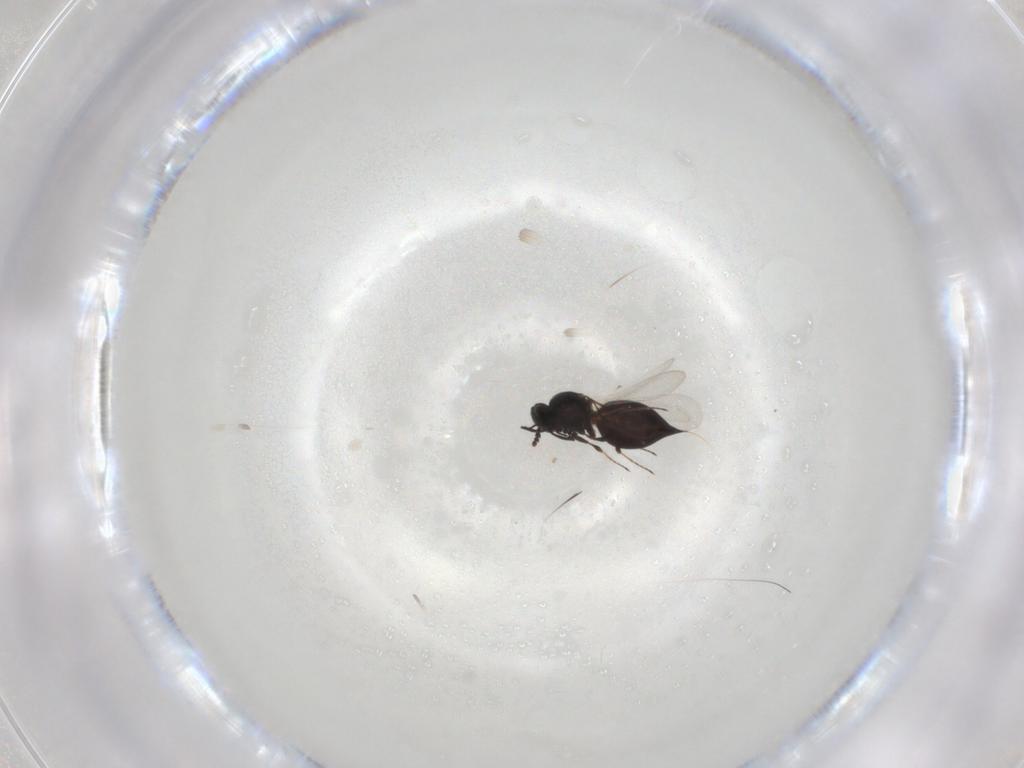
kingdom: Animalia
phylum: Arthropoda
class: Insecta
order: Hymenoptera
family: Platygastridae
